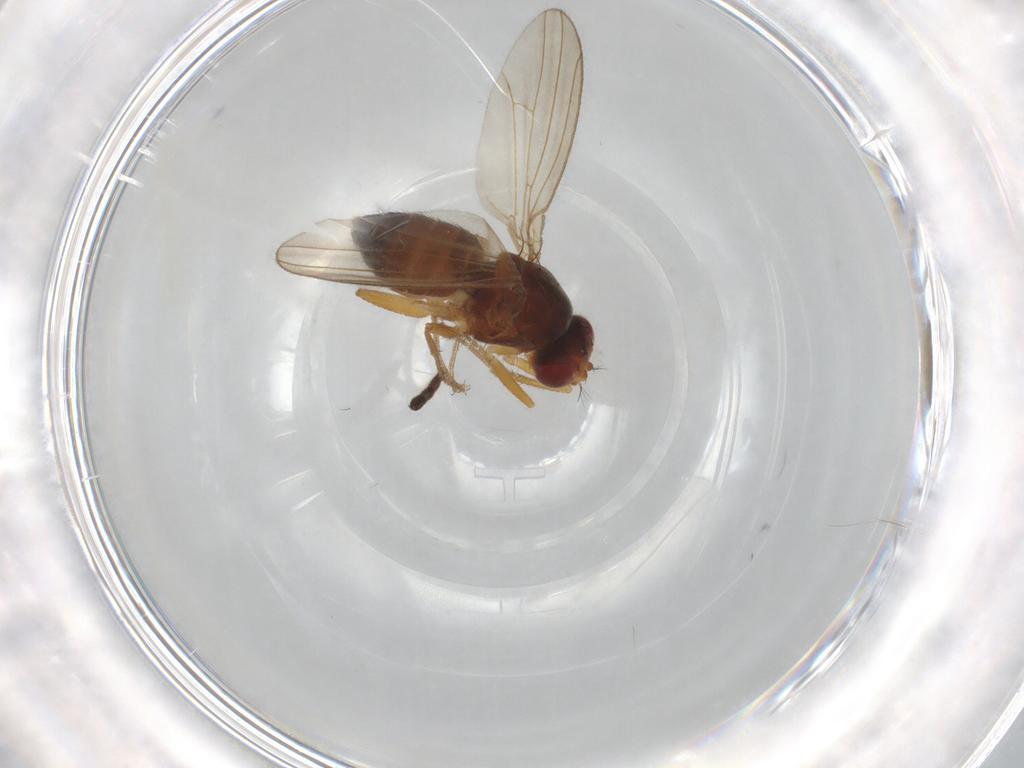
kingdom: Animalia
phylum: Arthropoda
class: Insecta
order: Diptera
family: Drosophilidae
